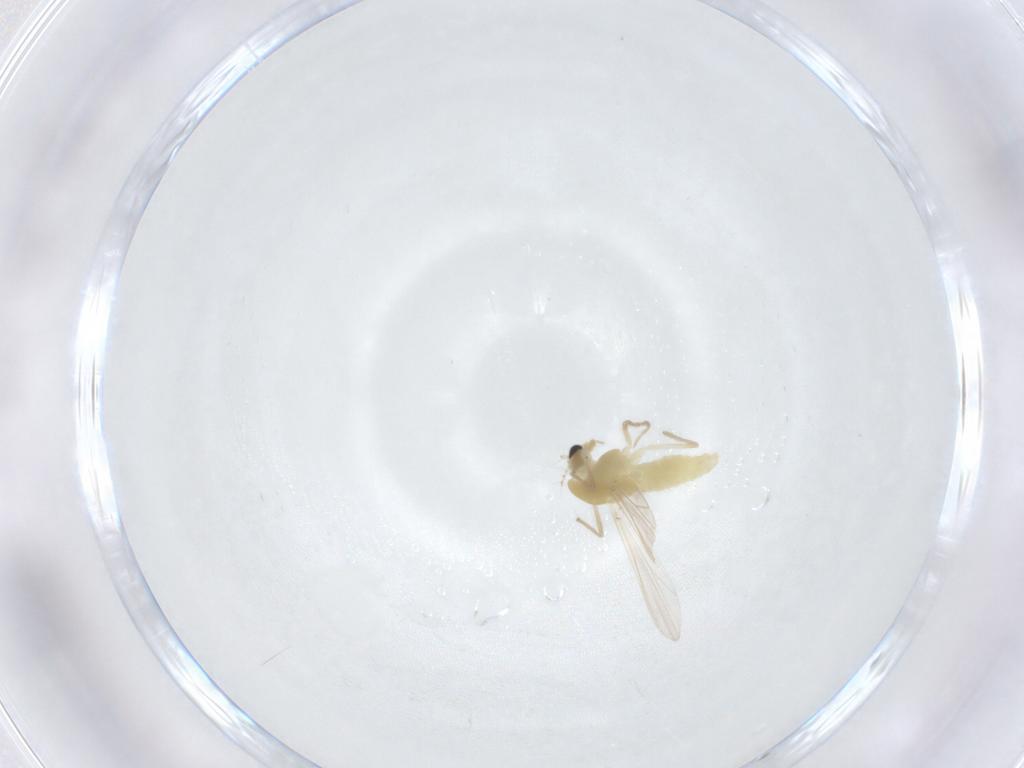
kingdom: Animalia
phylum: Arthropoda
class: Insecta
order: Diptera
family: Chironomidae
